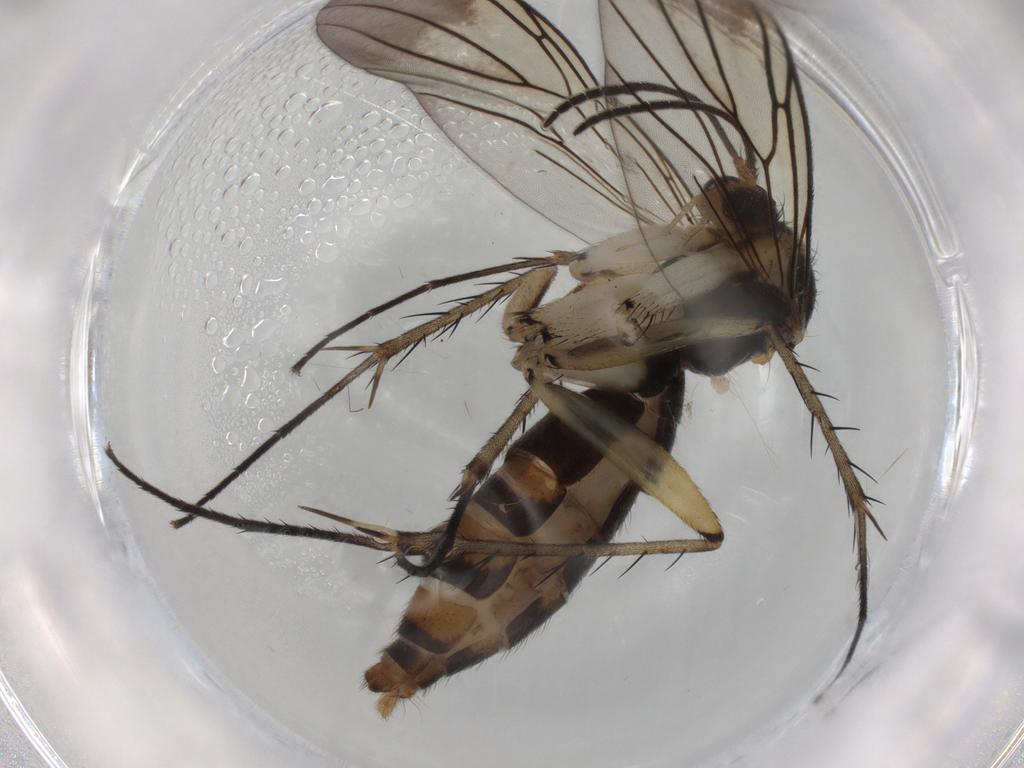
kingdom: Animalia
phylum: Arthropoda
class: Insecta
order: Diptera
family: Mycetophilidae
